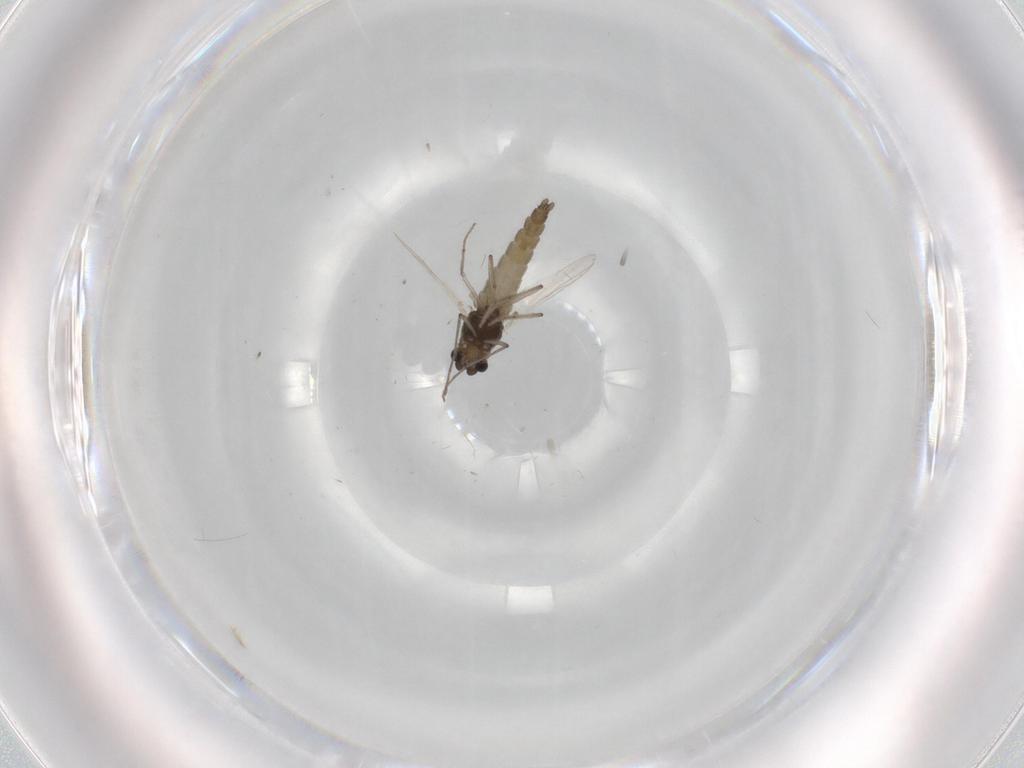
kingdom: Animalia
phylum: Arthropoda
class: Insecta
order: Diptera
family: Chironomidae
